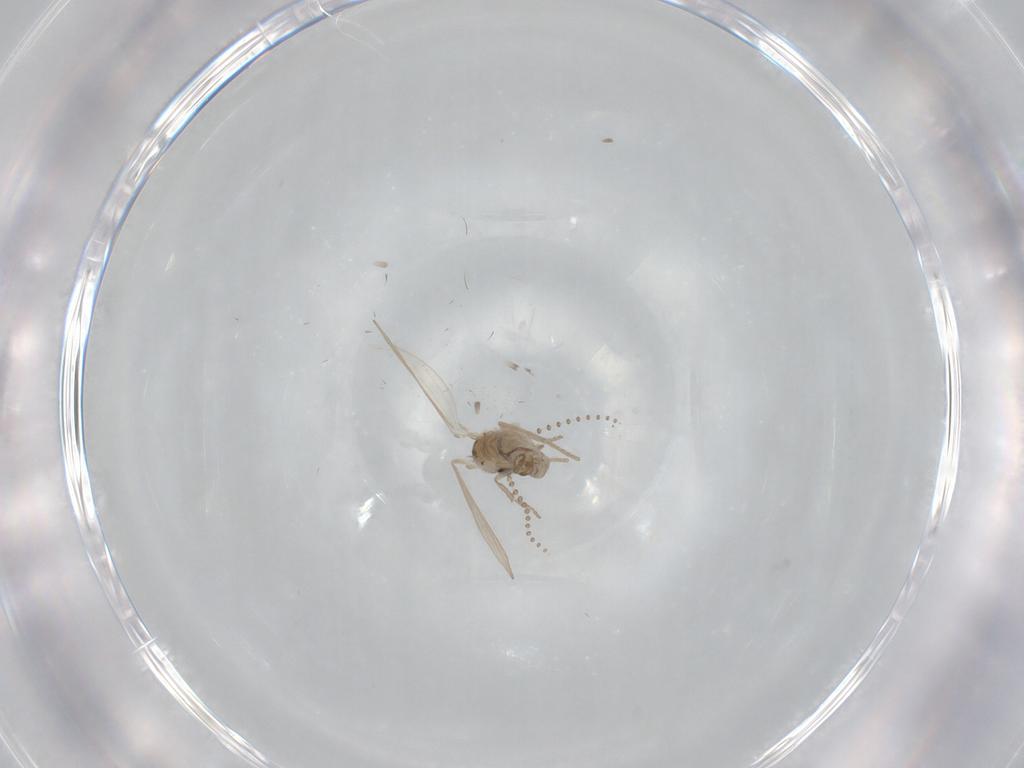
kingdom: Animalia
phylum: Arthropoda
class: Insecta
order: Diptera
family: Psychodidae
